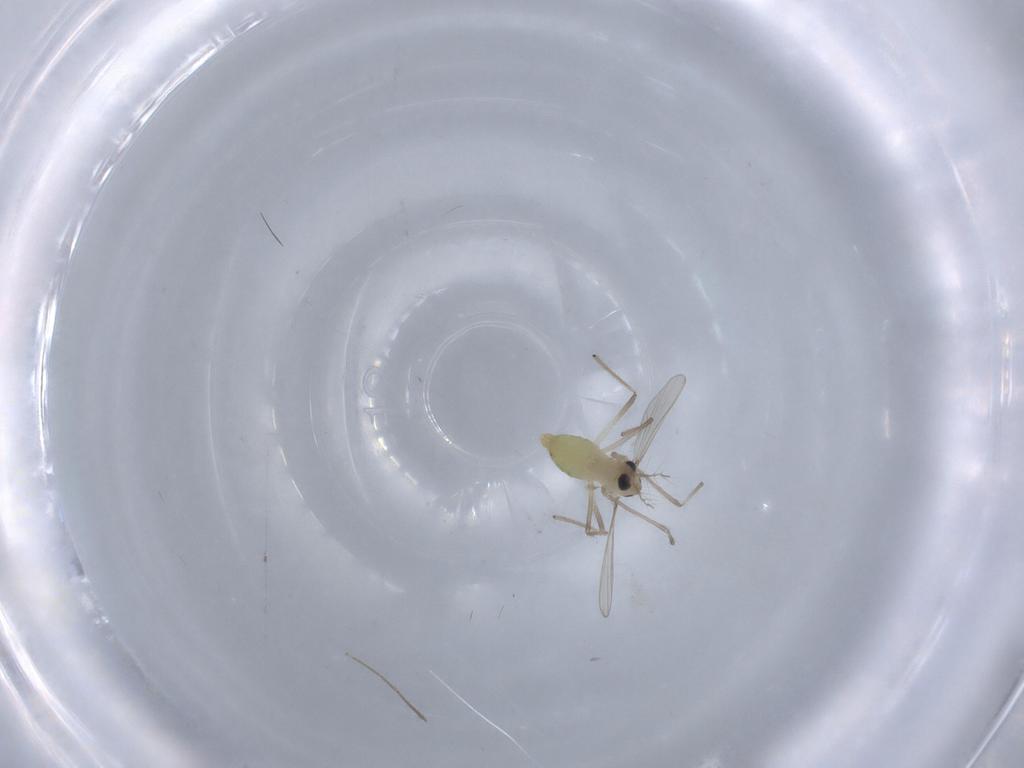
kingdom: Animalia
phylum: Arthropoda
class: Insecta
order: Diptera
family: Chironomidae
